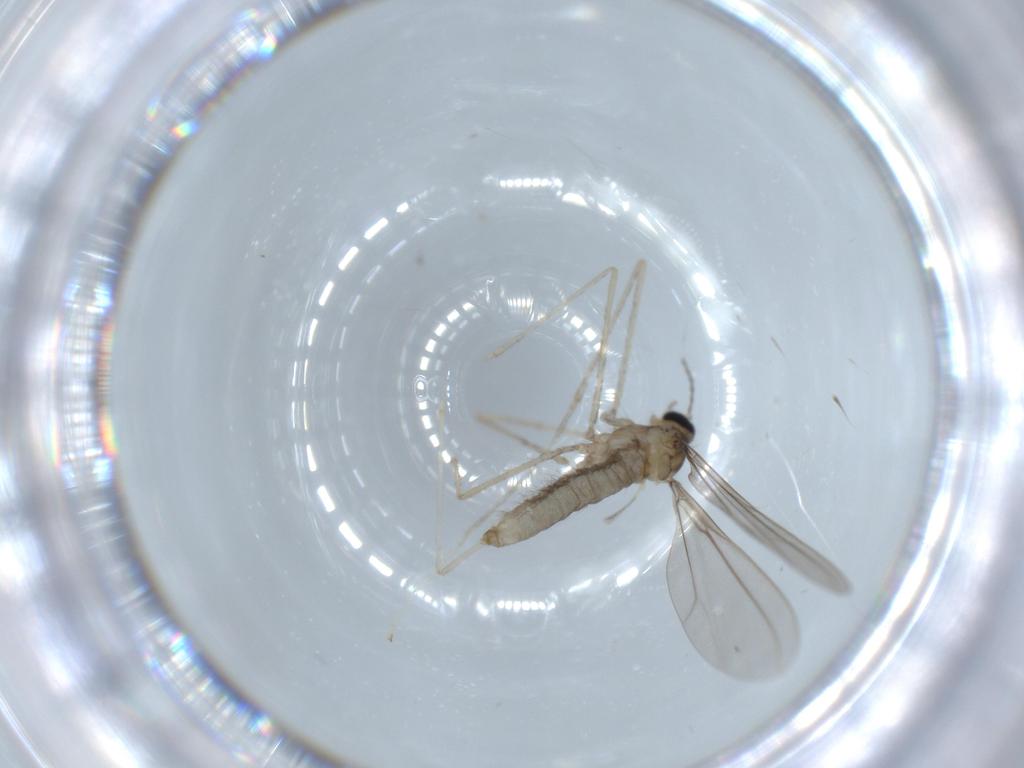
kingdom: Animalia
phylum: Arthropoda
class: Insecta
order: Diptera
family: Cecidomyiidae
